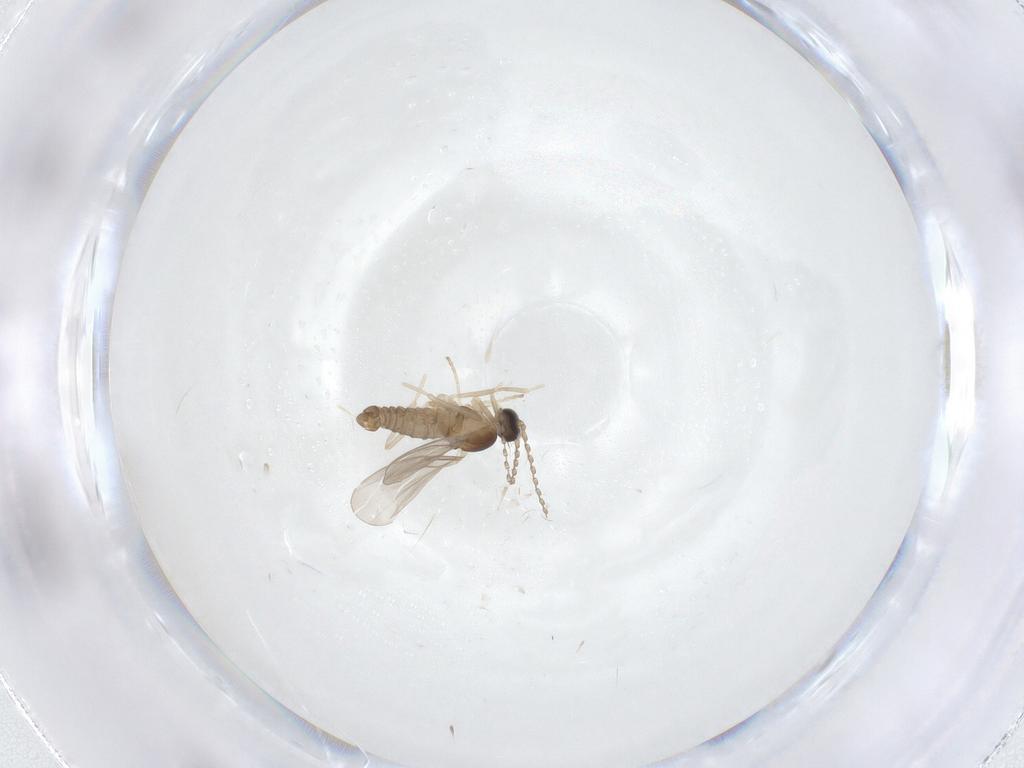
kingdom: Animalia
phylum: Arthropoda
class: Insecta
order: Diptera
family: Cecidomyiidae
